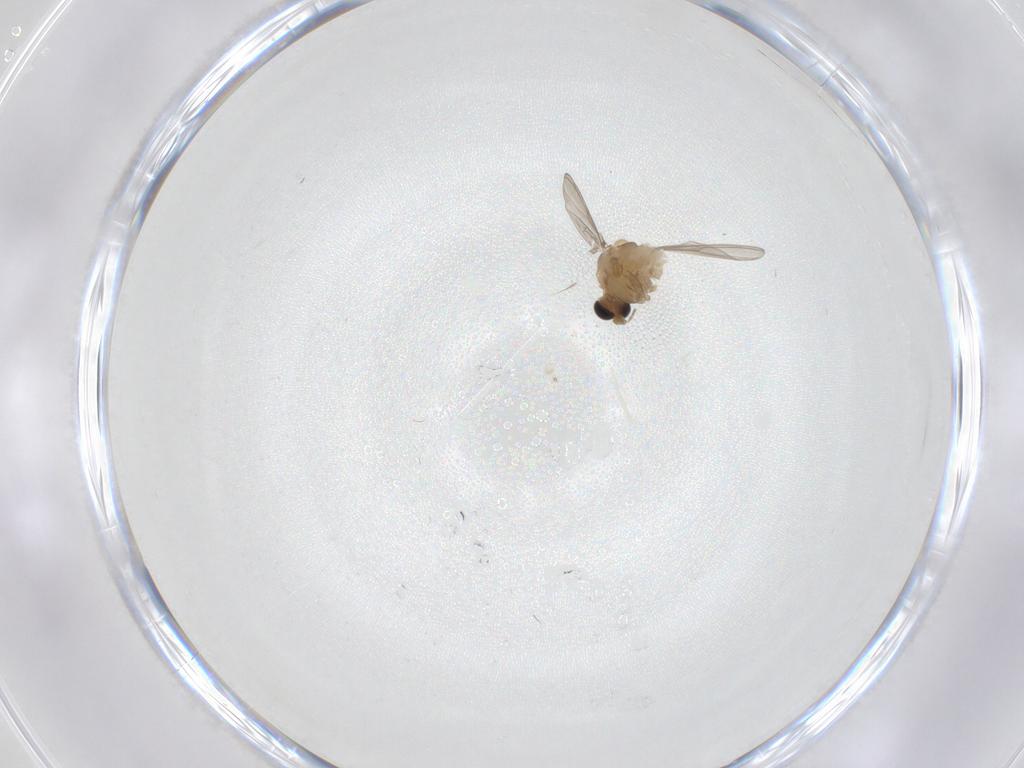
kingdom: Animalia
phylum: Arthropoda
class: Insecta
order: Diptera
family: Chironomidae
